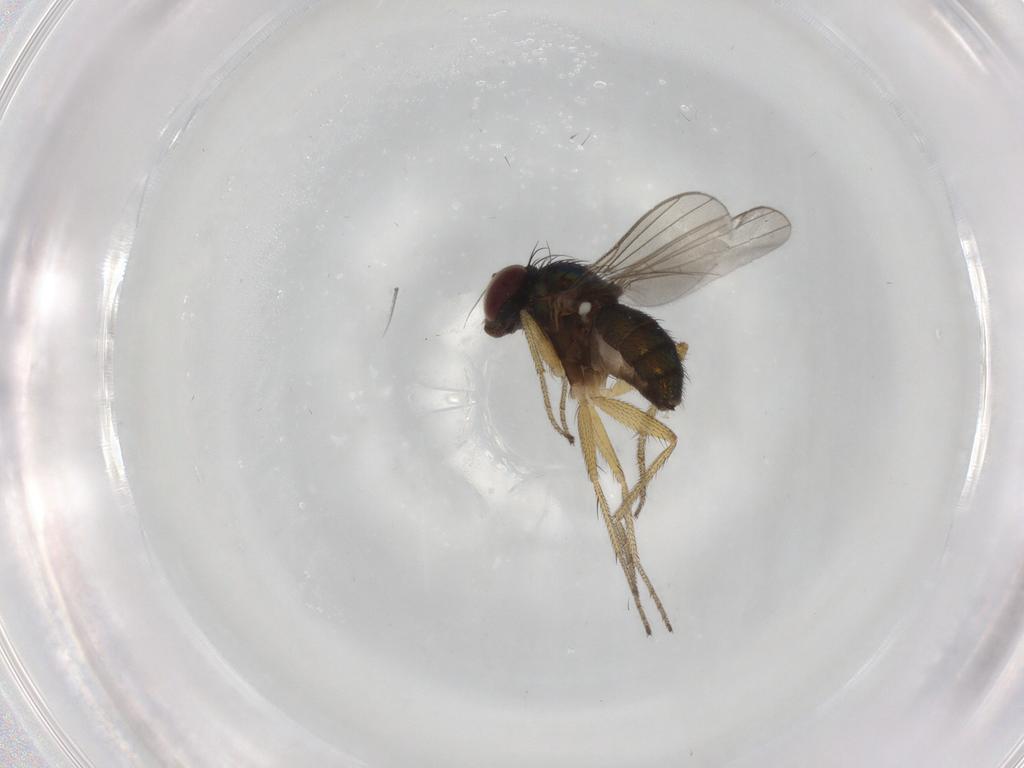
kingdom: Animalia
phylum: Arthropoda
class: Insecta
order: Diptera
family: Dolichopodidae
